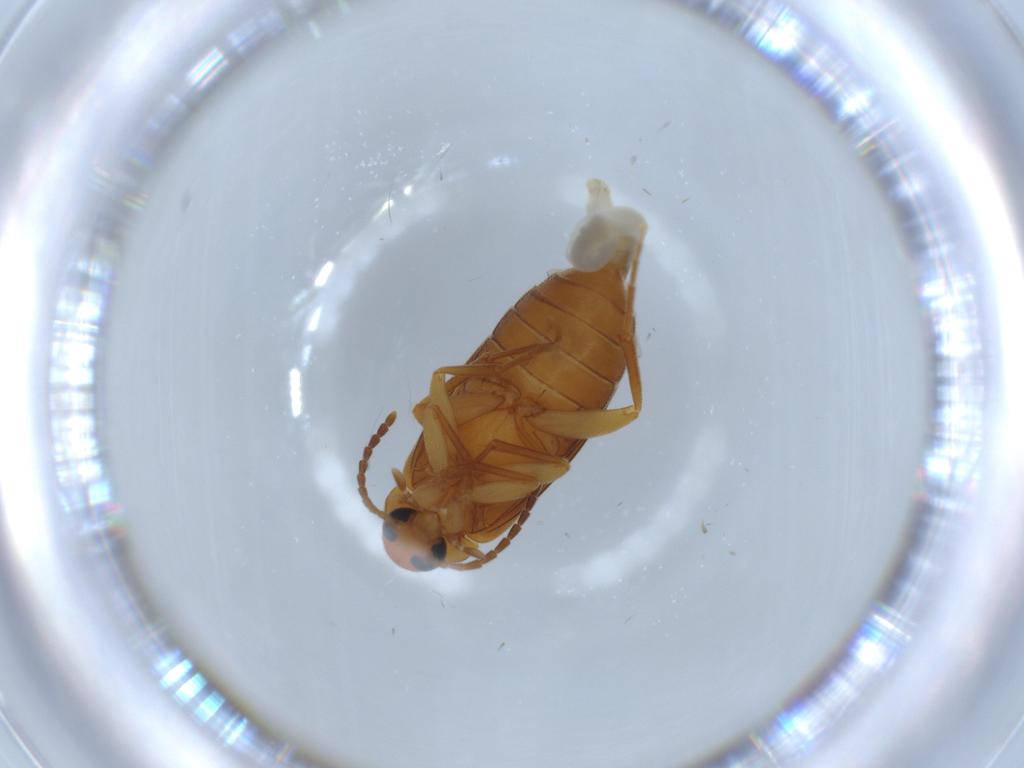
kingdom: Animalia
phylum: Arthropoda
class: Insecta
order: Coleoptera
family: Scraptiidae
